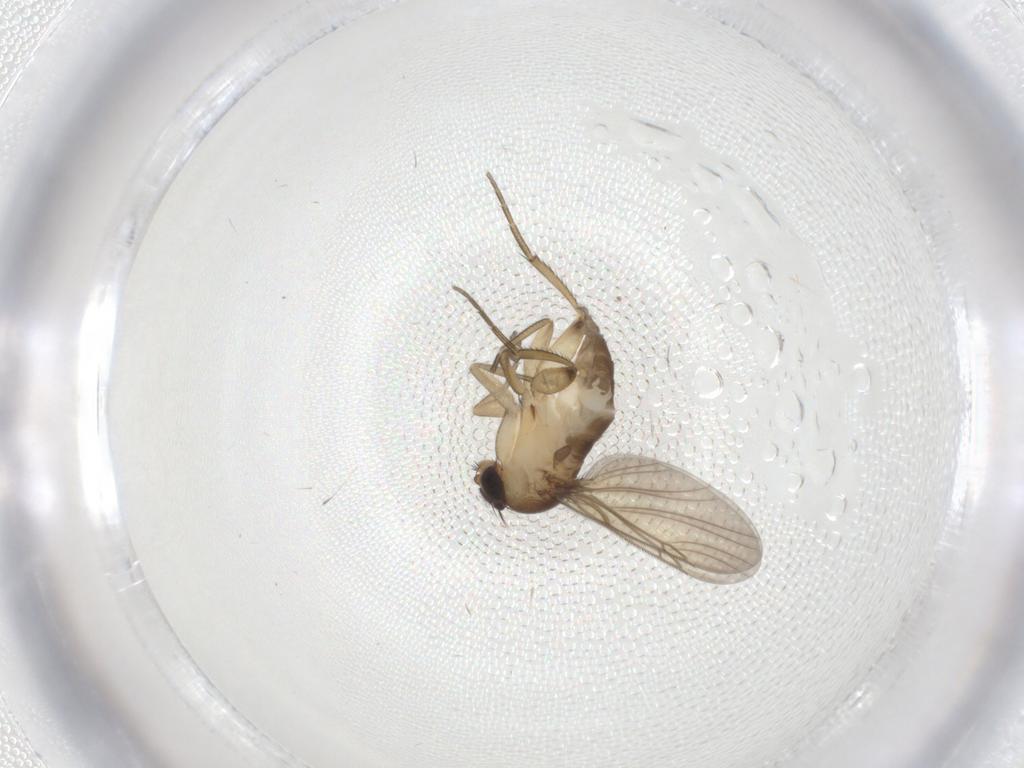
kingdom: Animalia
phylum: Arthropoda
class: Insecta
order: Diptera
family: Phoridae
